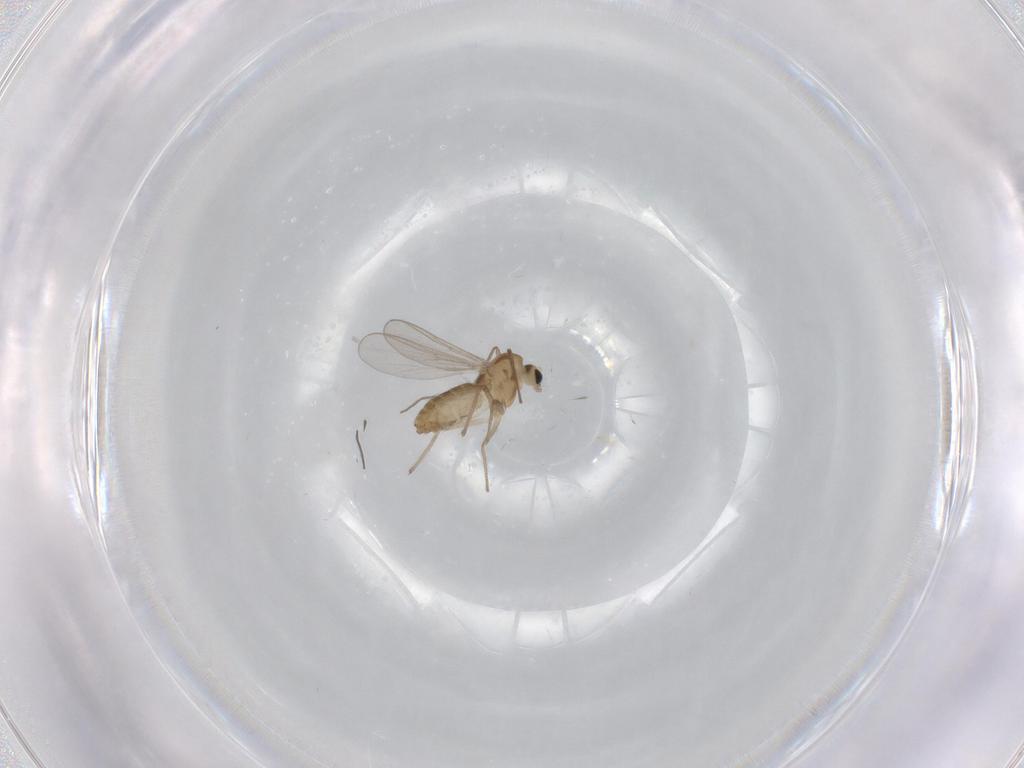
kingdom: Animalia
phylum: Arthropoda
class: Insecta
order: Diptera
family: Chironomidae
